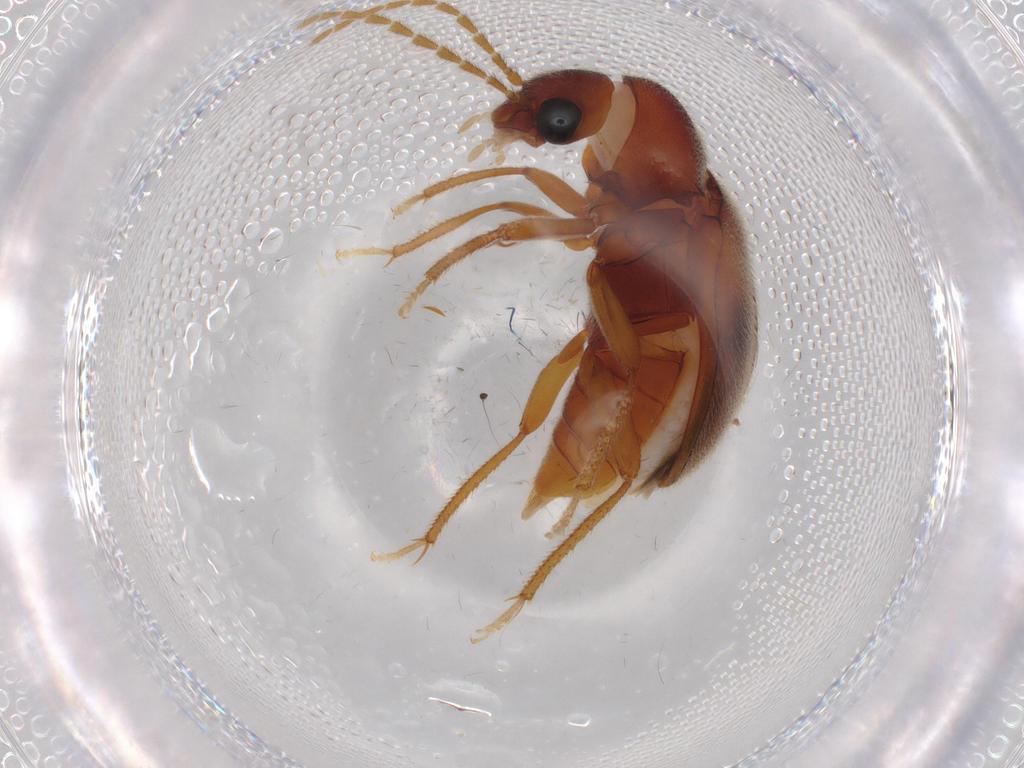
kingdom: Animalia
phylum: Arthropoda
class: Insecta
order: Coleoptera
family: Ptilodactylidae
